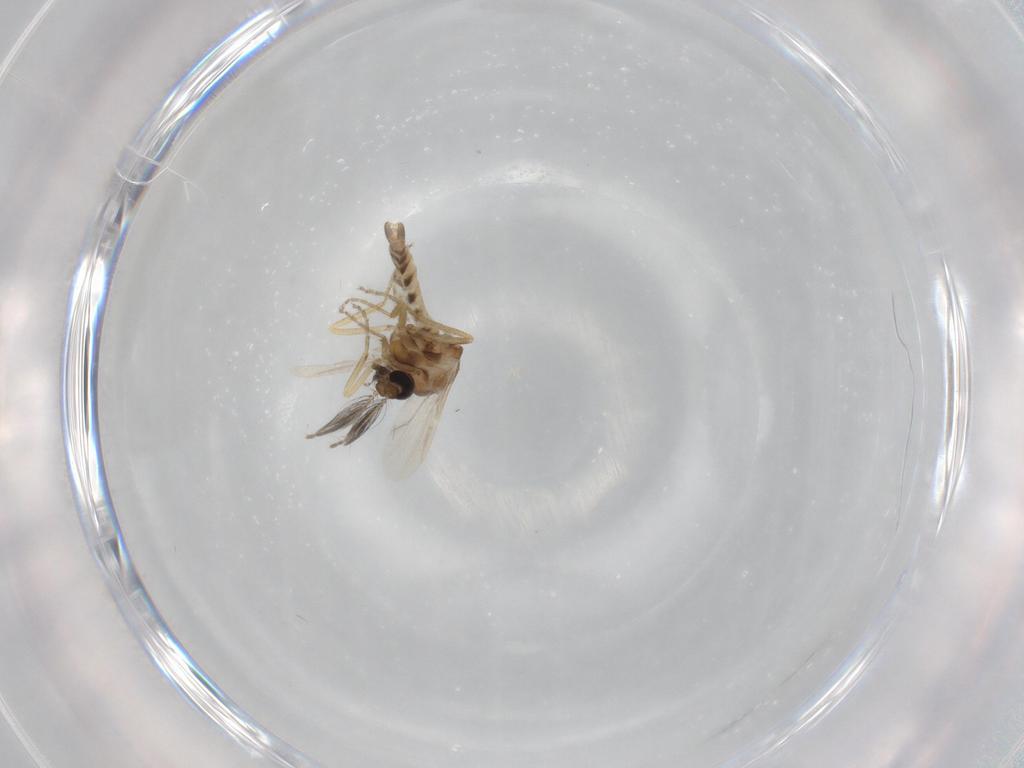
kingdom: Animalia
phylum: Arthropoda
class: Insecta
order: Diptera
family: Ceratopogonidae
